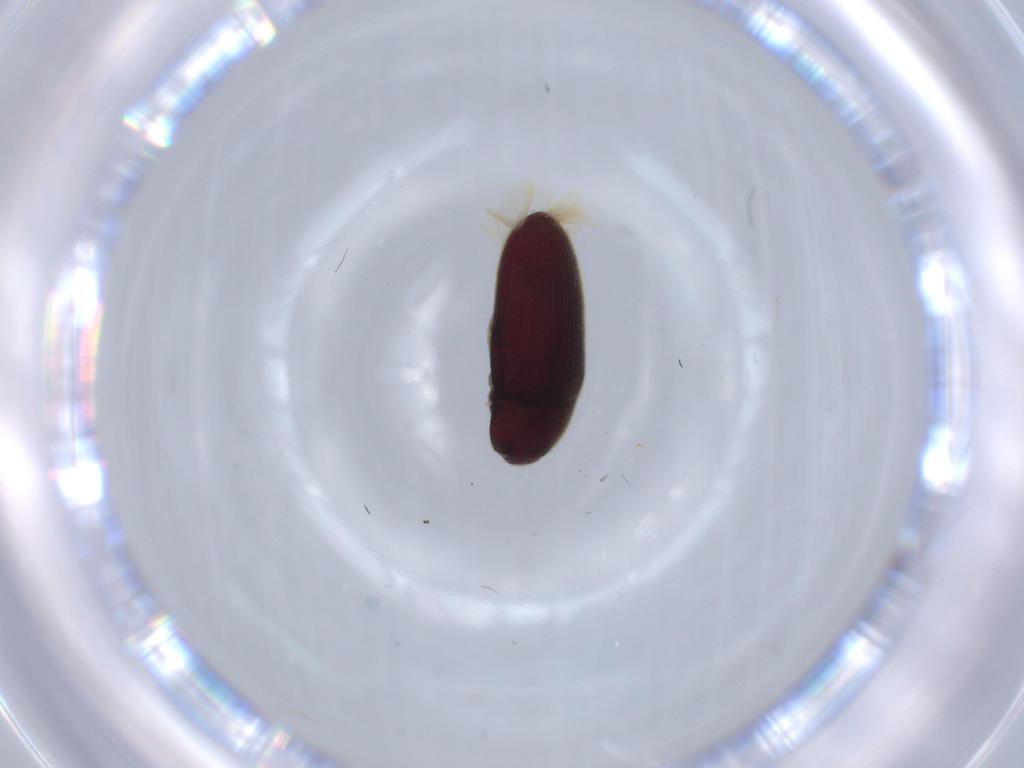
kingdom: Animalia
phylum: Arthropoda
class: Insecta
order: Coleoptera
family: Throscidae
